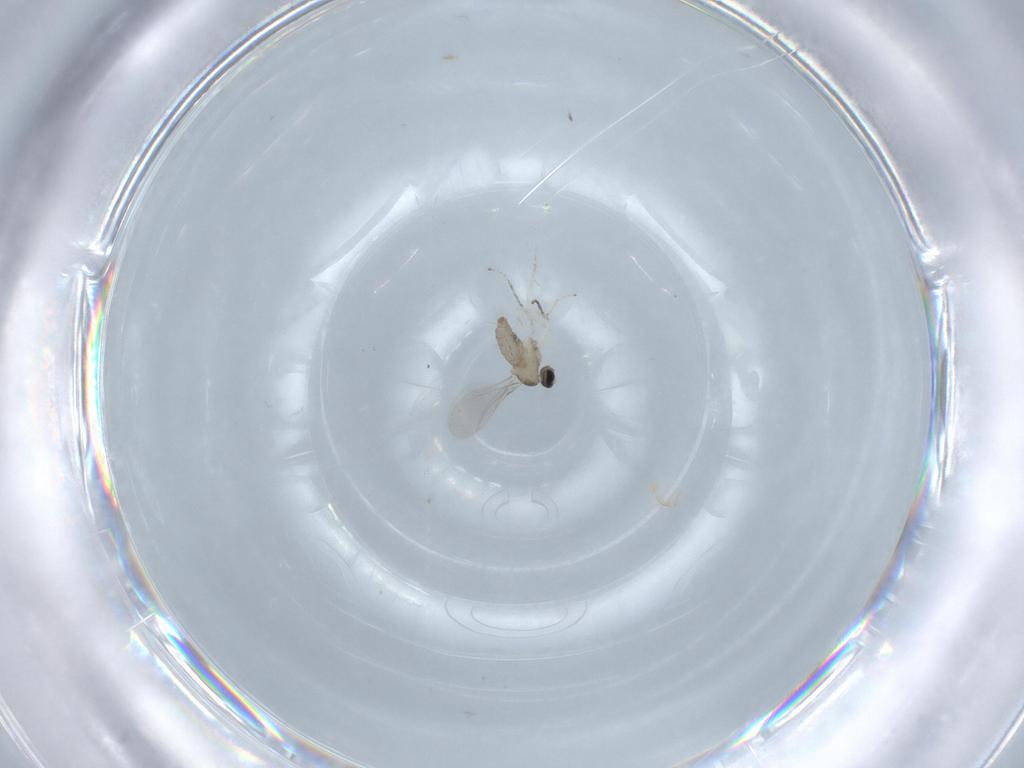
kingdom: Animalia
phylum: Arthropoda
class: Insecta
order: Diptera
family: Cecidomyiidae
